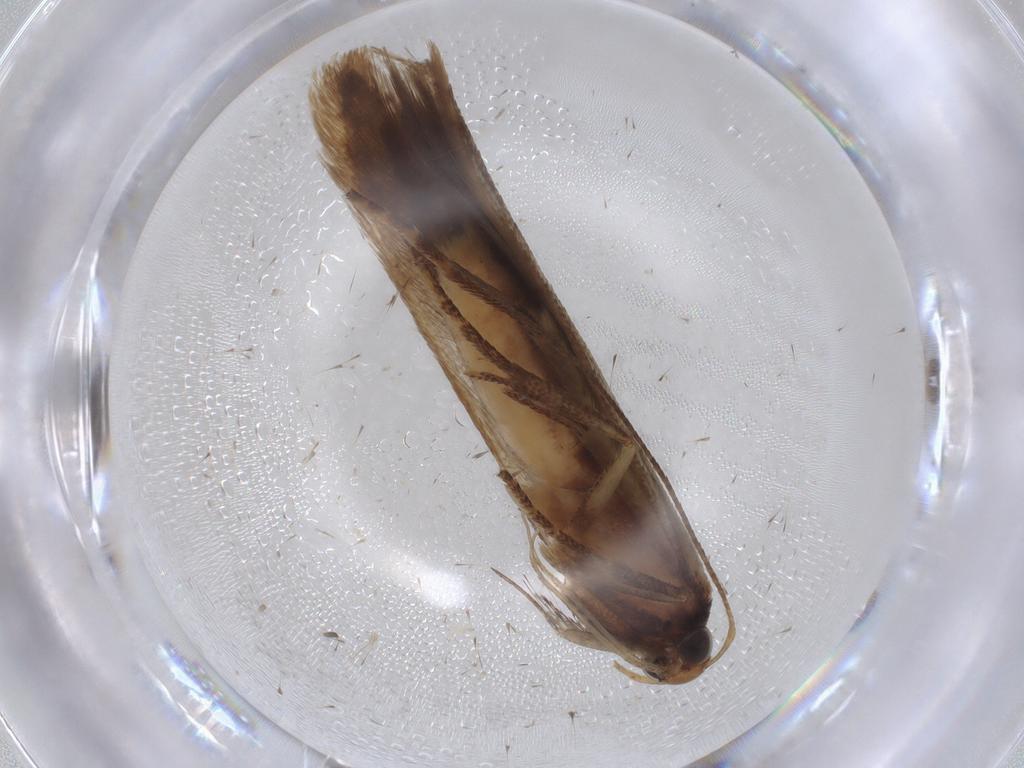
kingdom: Animalia
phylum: Arthropoda
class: Insecta
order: Lepidoptera
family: Gelechiidae
